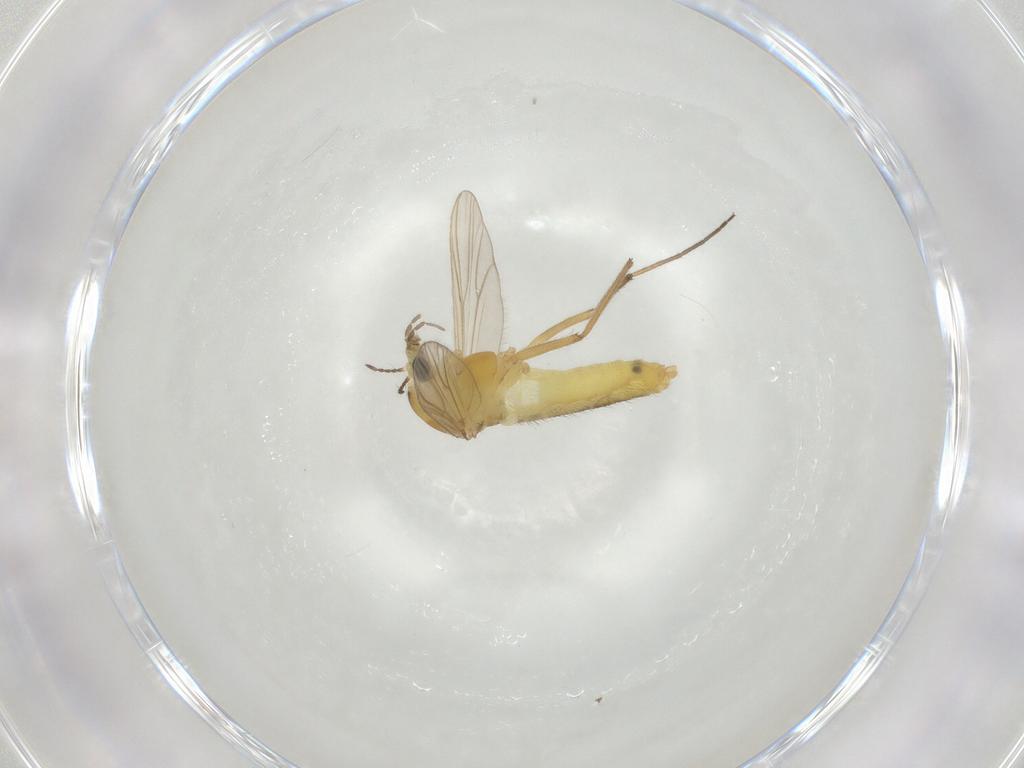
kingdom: Animalia
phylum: Arthropoda
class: Insecta
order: Diptera
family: Chironomidae
